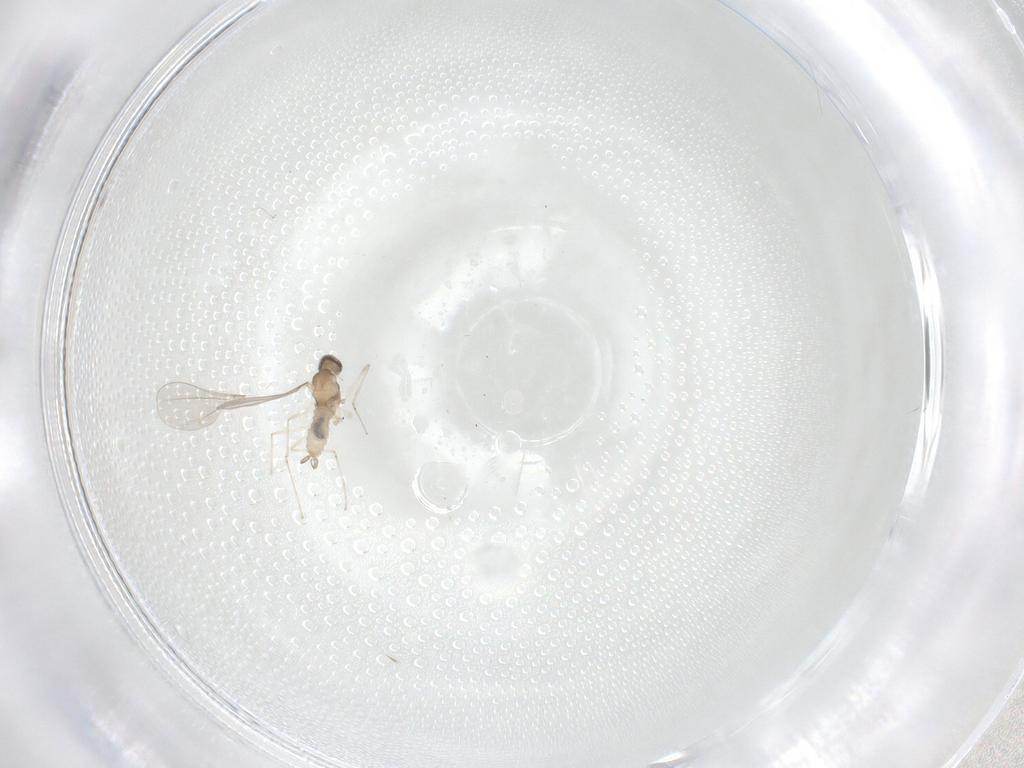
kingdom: Animalia
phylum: Arthropoda
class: Insecta
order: Diptera
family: Cecidomyiidae
